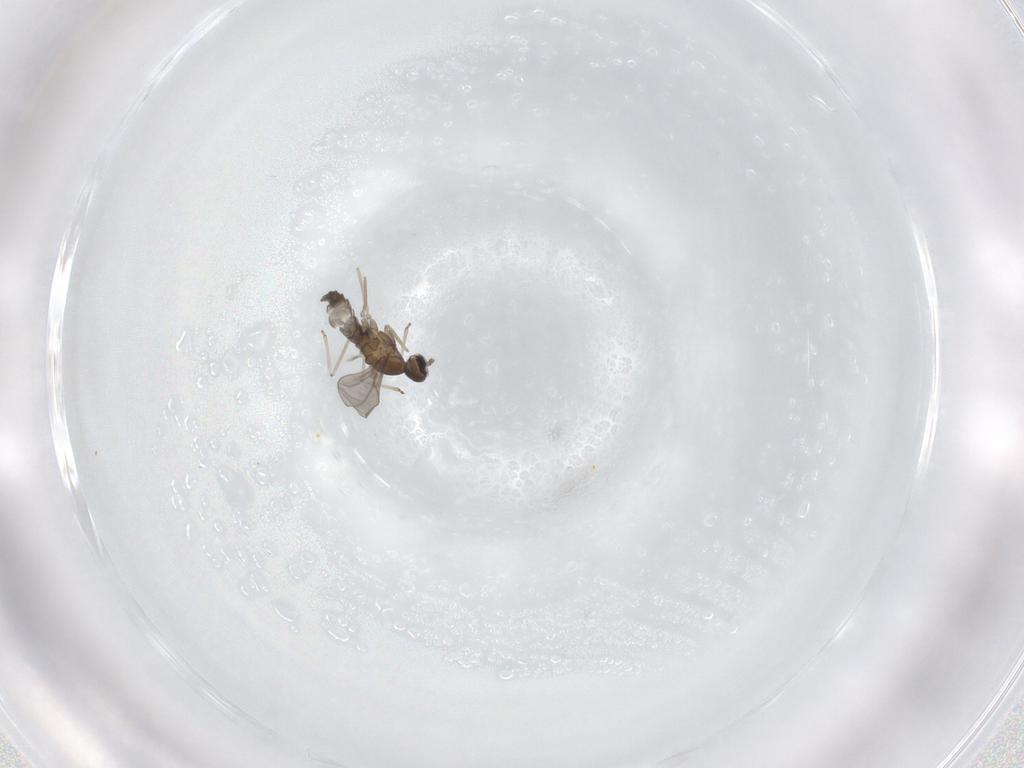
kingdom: Animalia
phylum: Arthropoda
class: Insecta
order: Diptera
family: Cecidomyiidae
